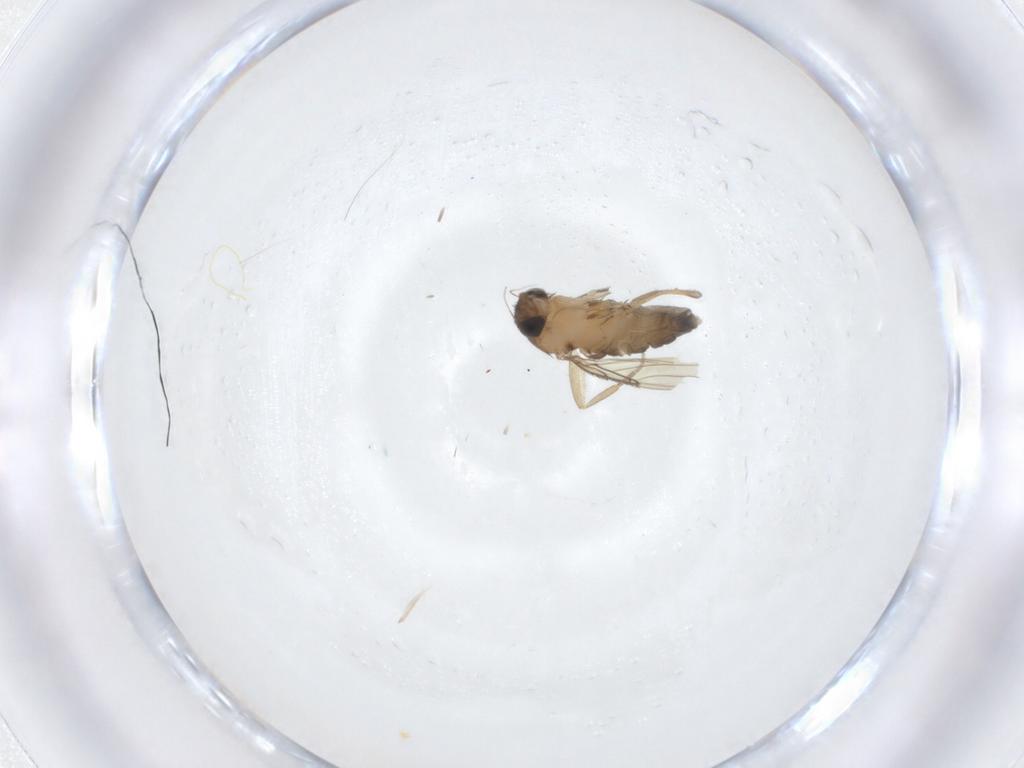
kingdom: Animalia
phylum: Arthropoda
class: Insecta
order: Diptera
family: Phoridae
